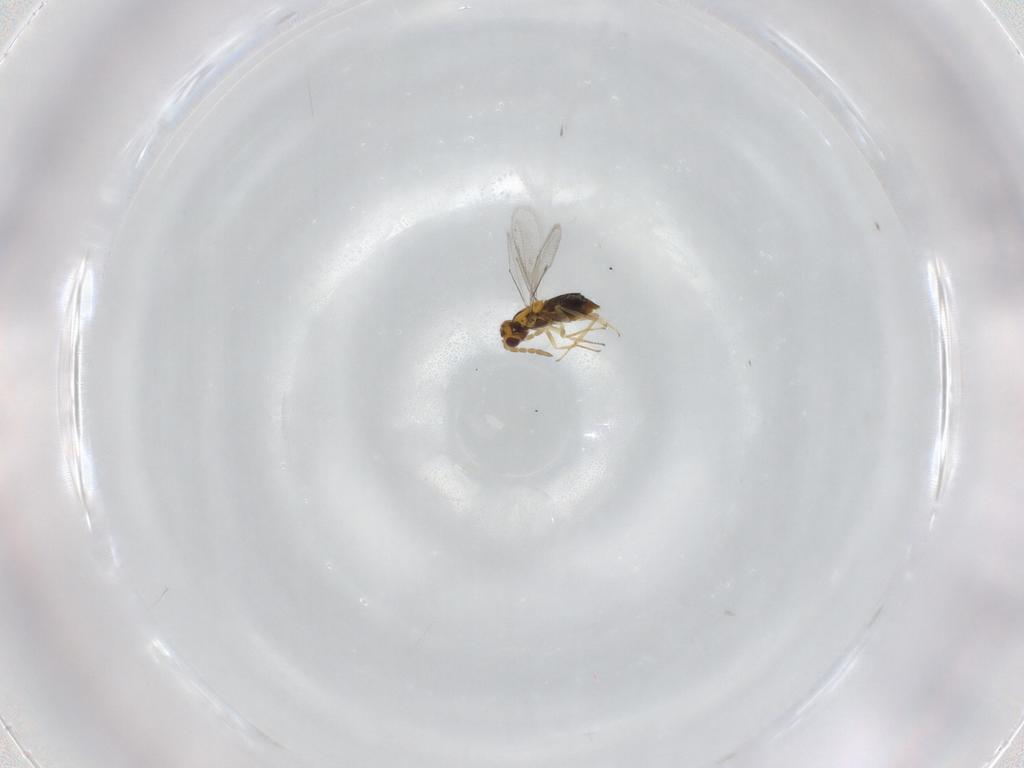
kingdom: Animalia
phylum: Arthropoda
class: Insecta
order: Hymenoptera
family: Aphelinidae
